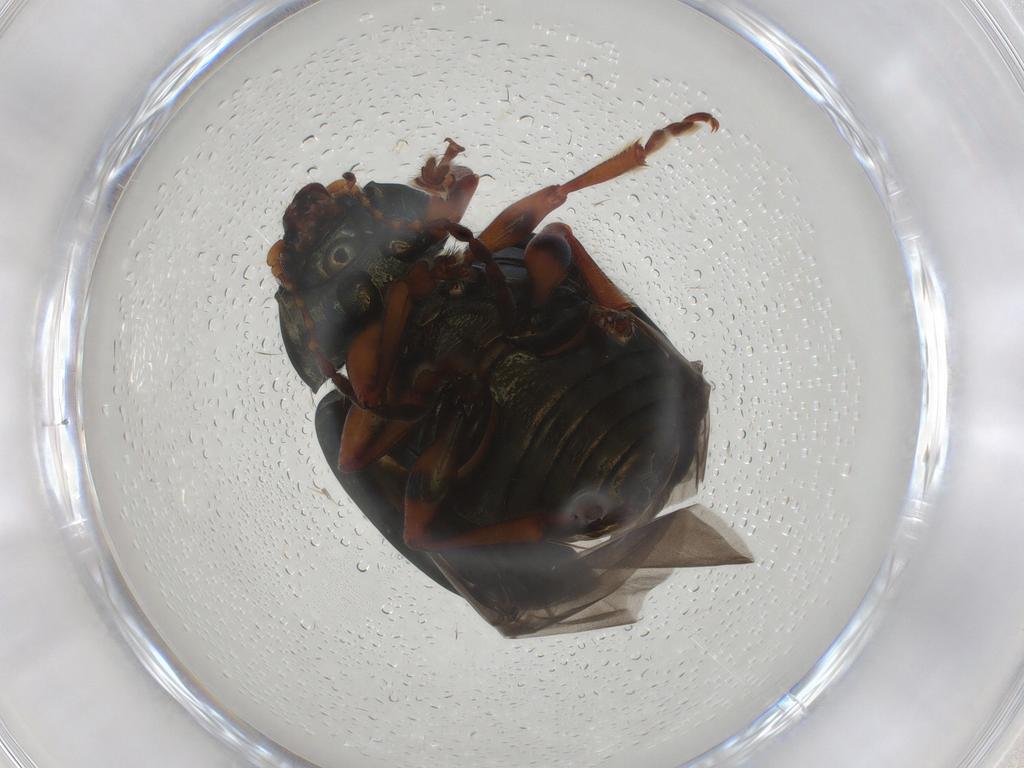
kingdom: Animalia
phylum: Arthropoda
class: Insecta
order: Coleoptera
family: Chrysomelidae
